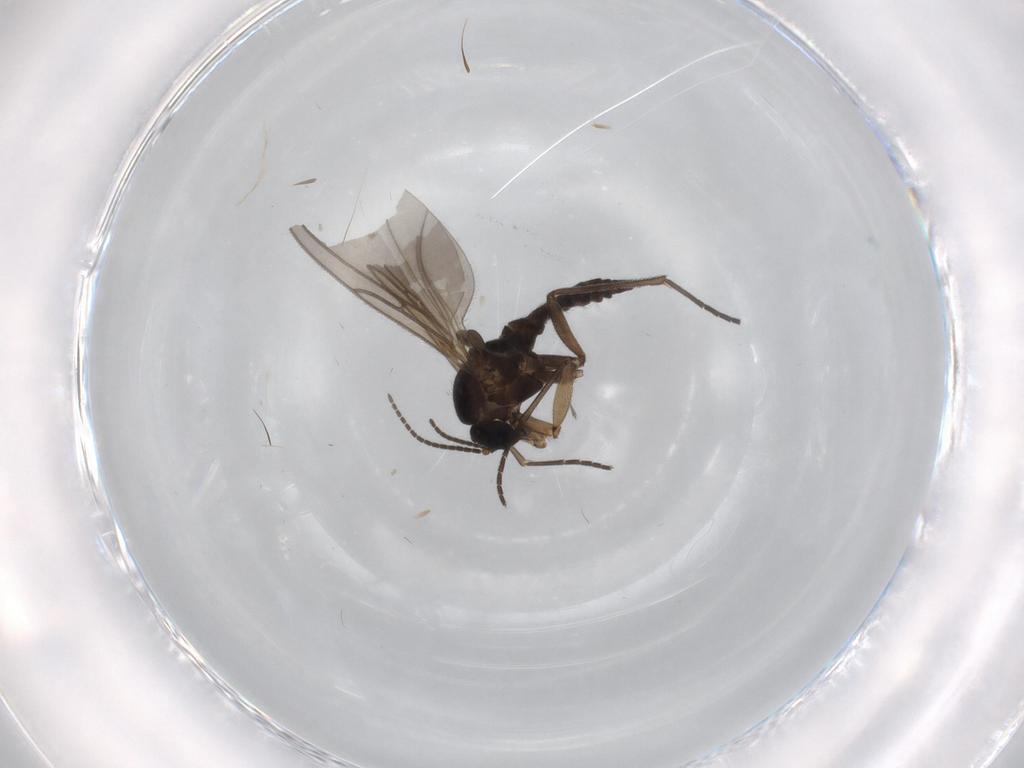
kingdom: Animalia
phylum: Arthropoda
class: Insecta
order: Diptera
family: Sciaridae
